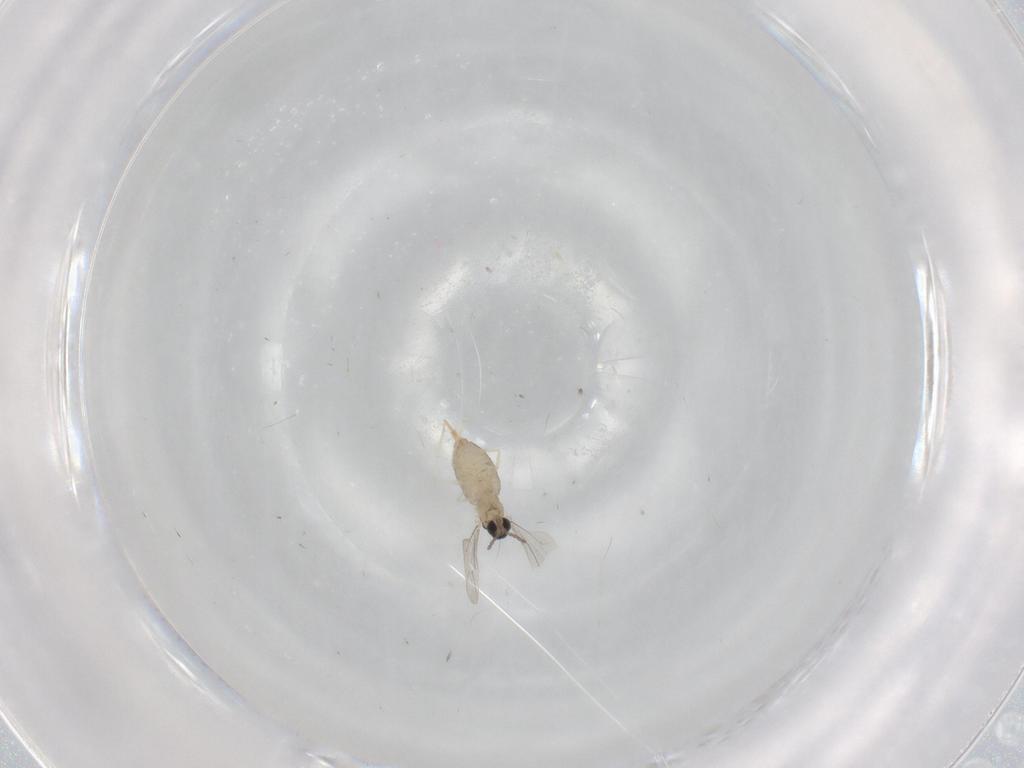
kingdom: Animalia
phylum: Arthropoda
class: Insecta
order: Diptera
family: Cecidomyiidae
